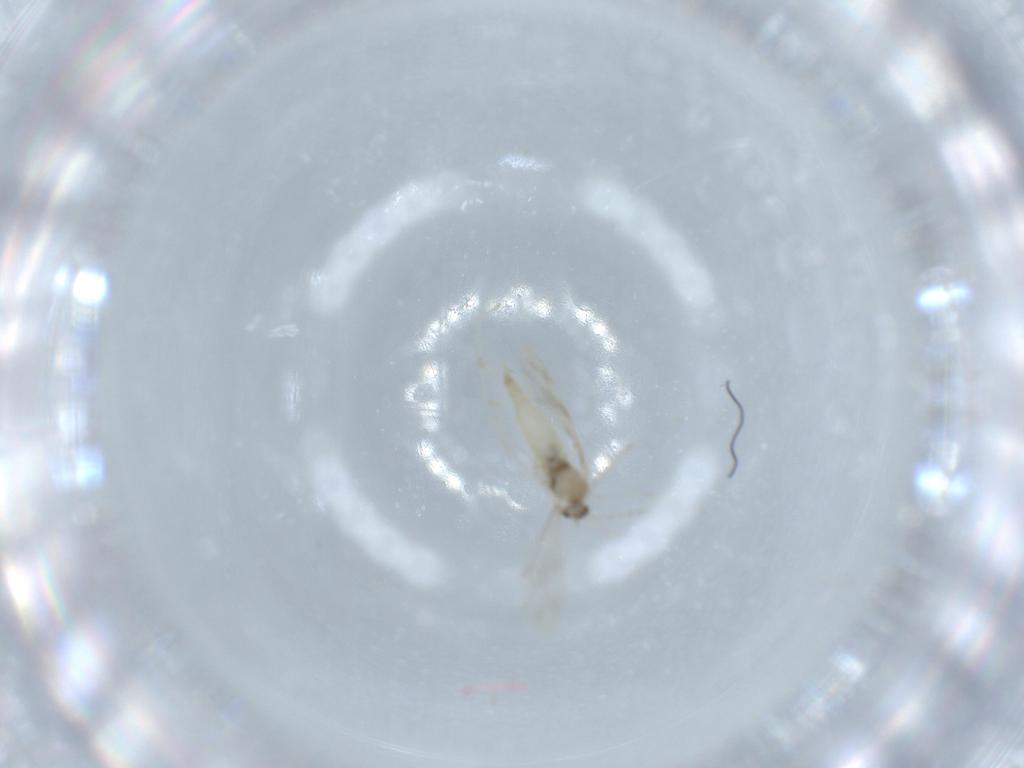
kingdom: Animalia
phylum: Arthropoda
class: Insecta
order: Diptera
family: Cecidomyiidae
